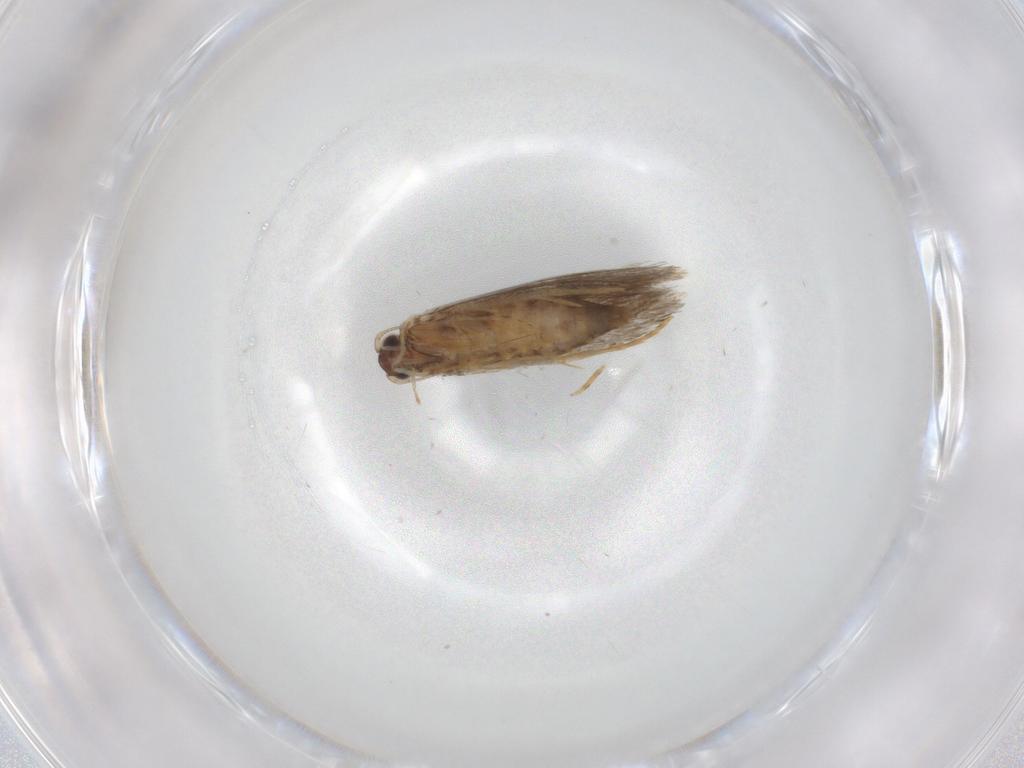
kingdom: Animalia
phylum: Arthropoda
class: Insecta
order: Lepidoptera
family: Tineidae
